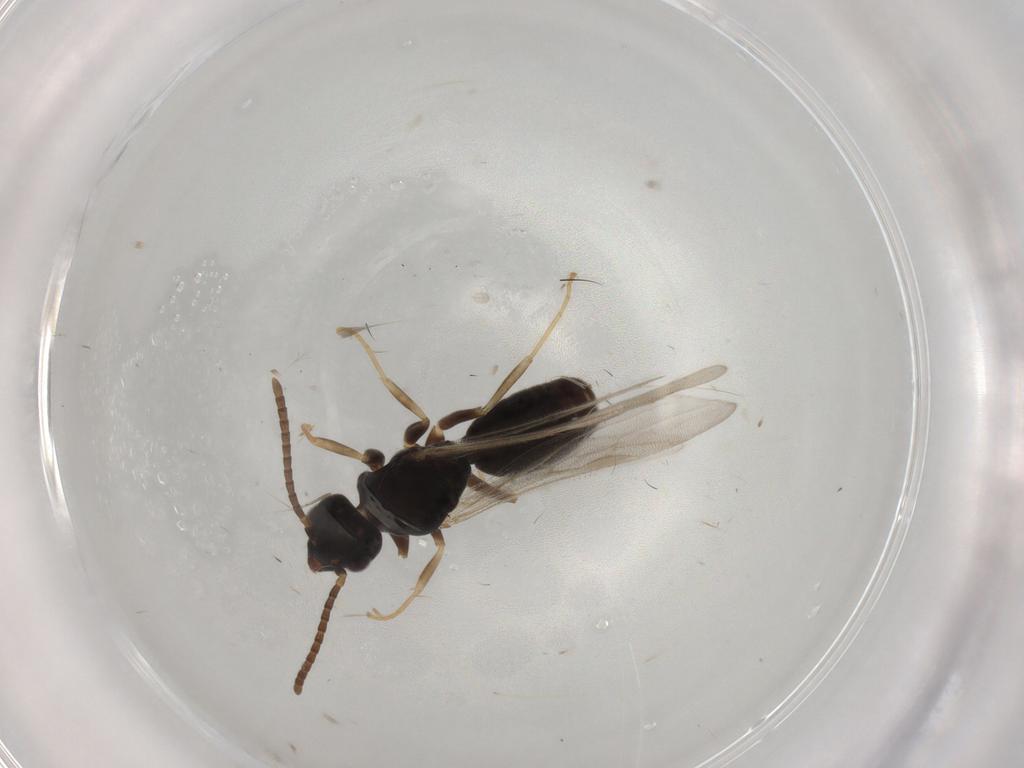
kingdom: Animalia
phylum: Arthropoda
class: Insecta
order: Hymenoptera
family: Formicidae
